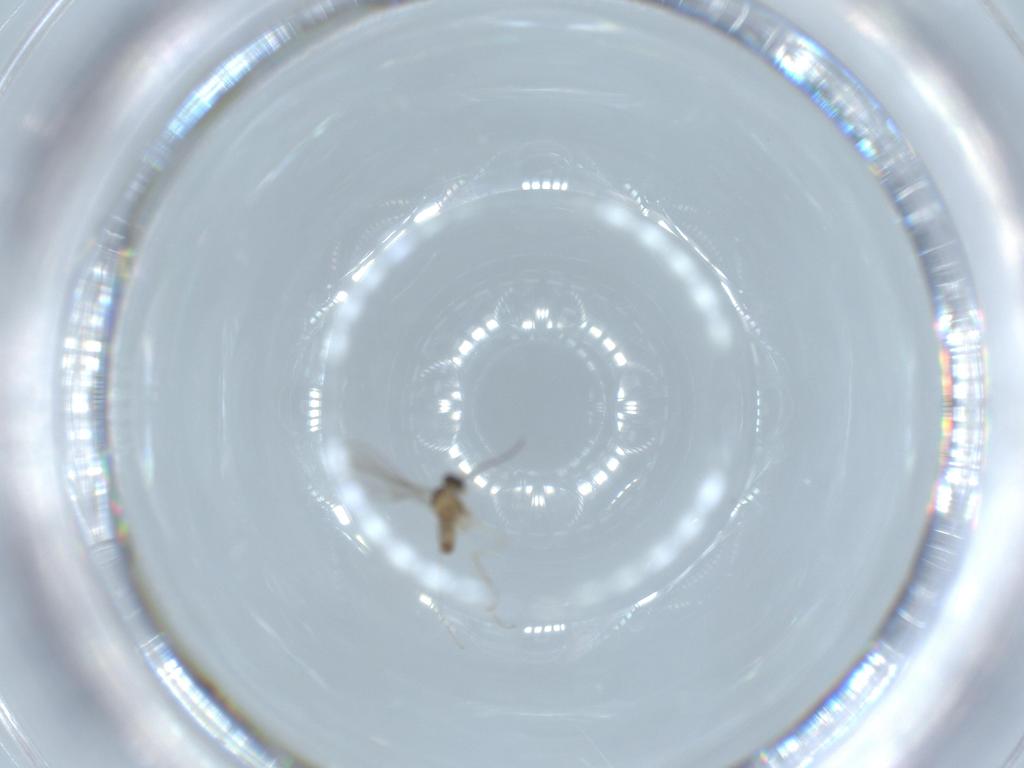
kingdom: Animalia
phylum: Arthropoda
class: Insecta
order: Diptera
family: Cecidomyiidae
